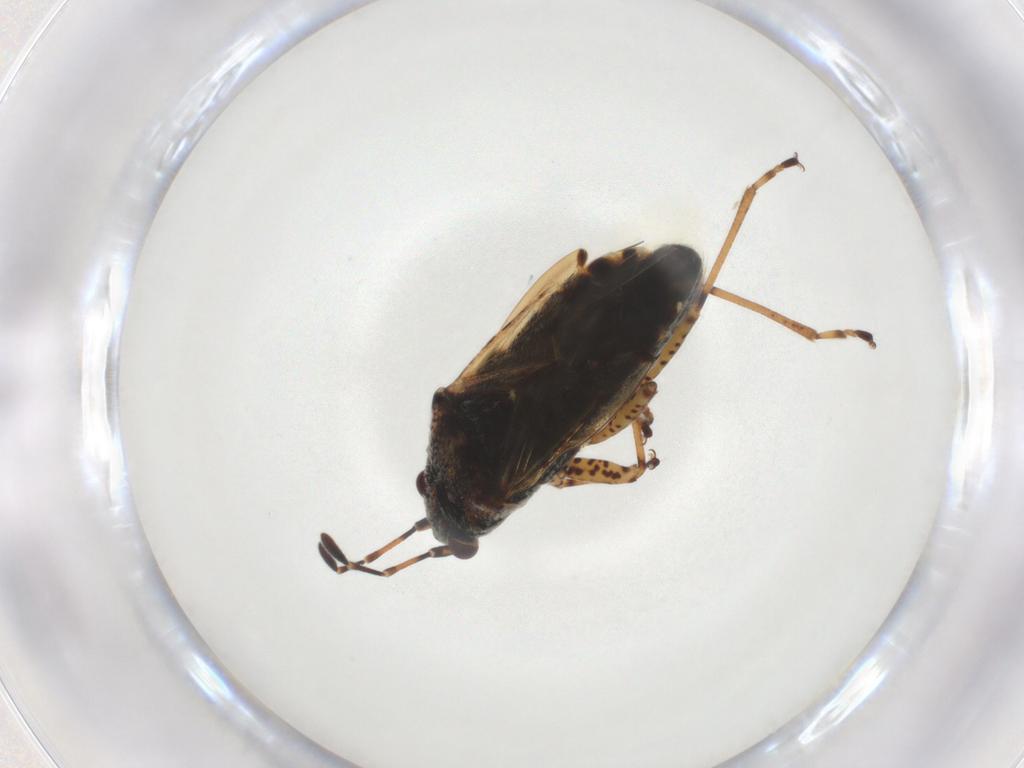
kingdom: Animalia
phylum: Arthropoda
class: Insecta
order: Hemiptera
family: Lygaeidae
